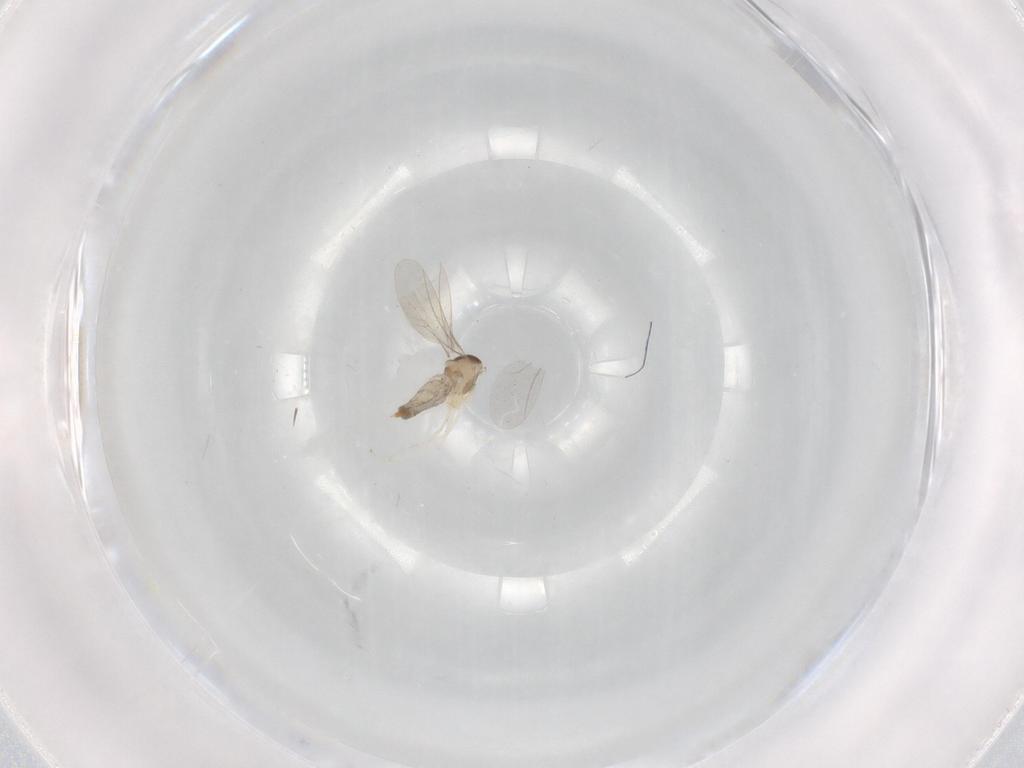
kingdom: Animalia
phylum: Arthropoda
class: Insecta
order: Diptera
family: Cecidomyiidae
